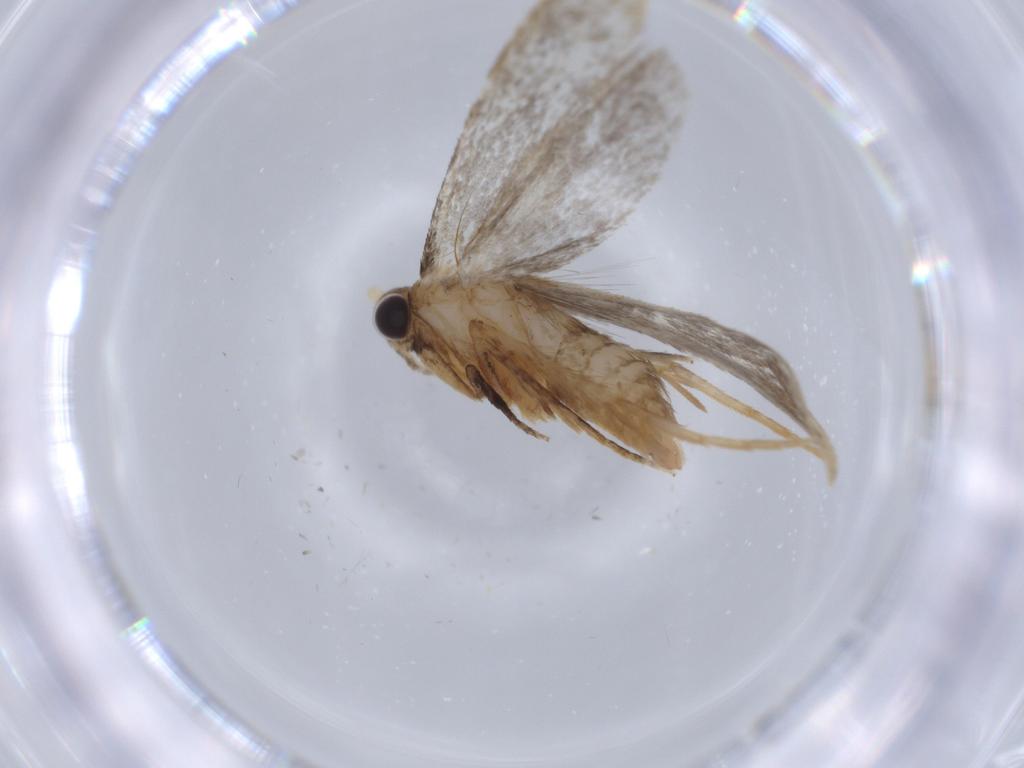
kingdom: Animalia
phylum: Arthropoda
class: Insecta
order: Lepidoptera
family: Tineidae
